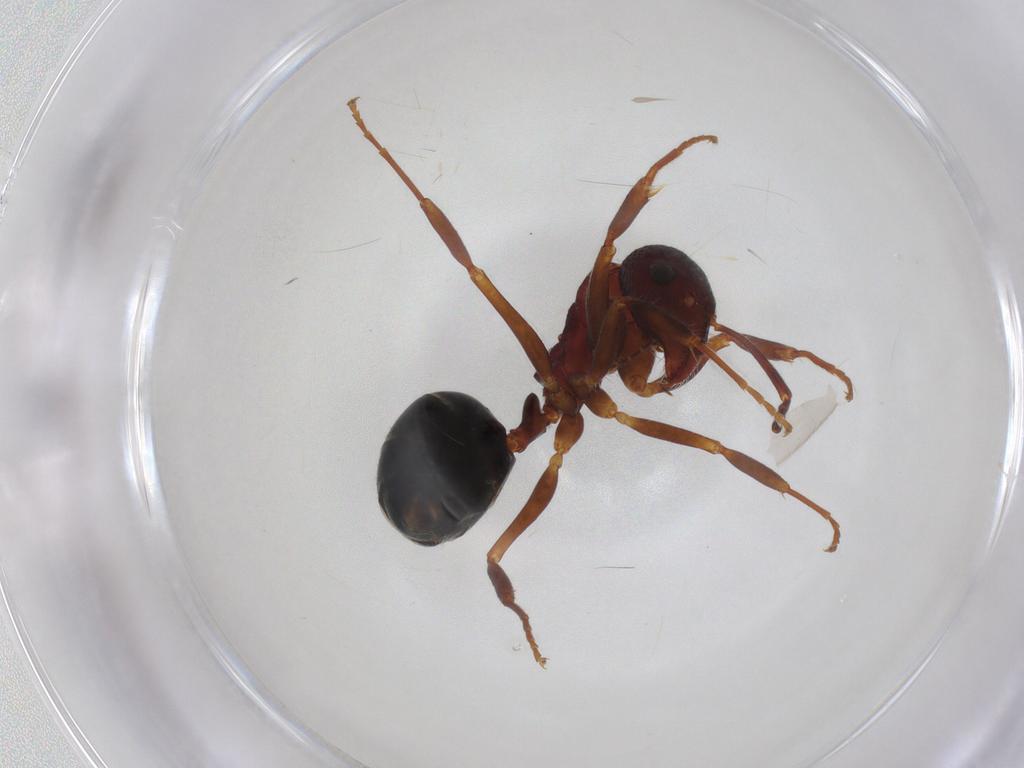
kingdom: Animalia
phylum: Arthropoda
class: Insecta
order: Hymenoptera
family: Formicidae
